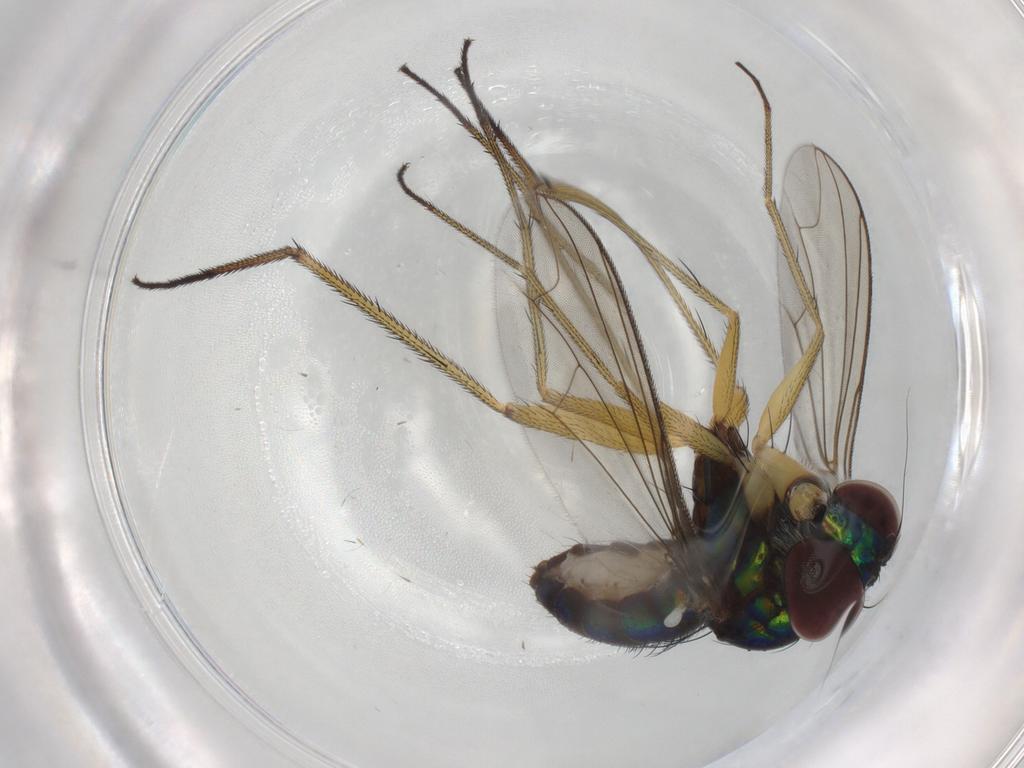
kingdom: Animalia
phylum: Arthropoda
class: Insecta
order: Diptera
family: Dolichopodidae
